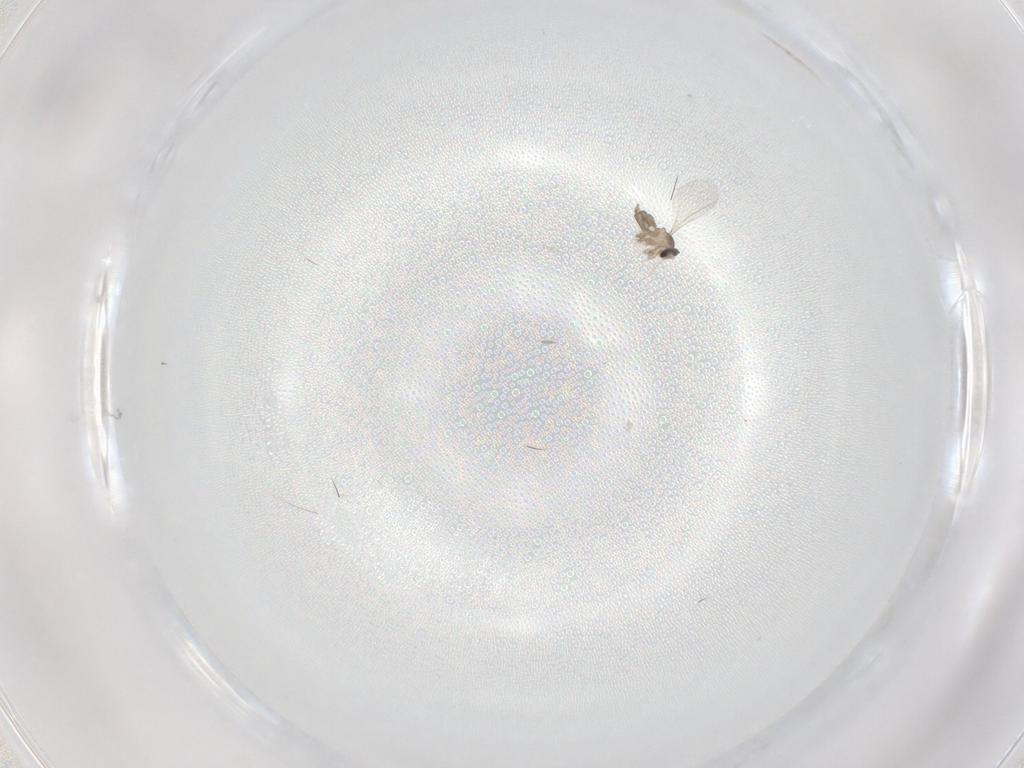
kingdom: Animalia
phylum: Arthropoda
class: Insecta
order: Diptera
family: Cecidomyiidae
